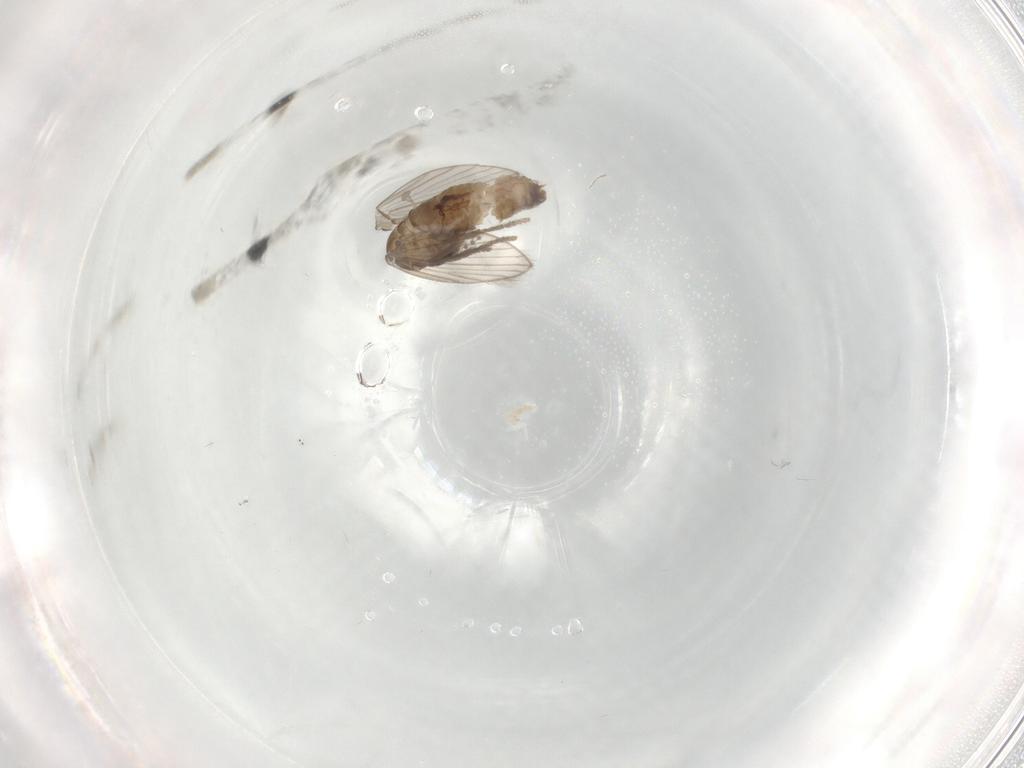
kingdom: Animalia
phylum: Arthropoda
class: Insecta
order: Diptera
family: Psychodidae
